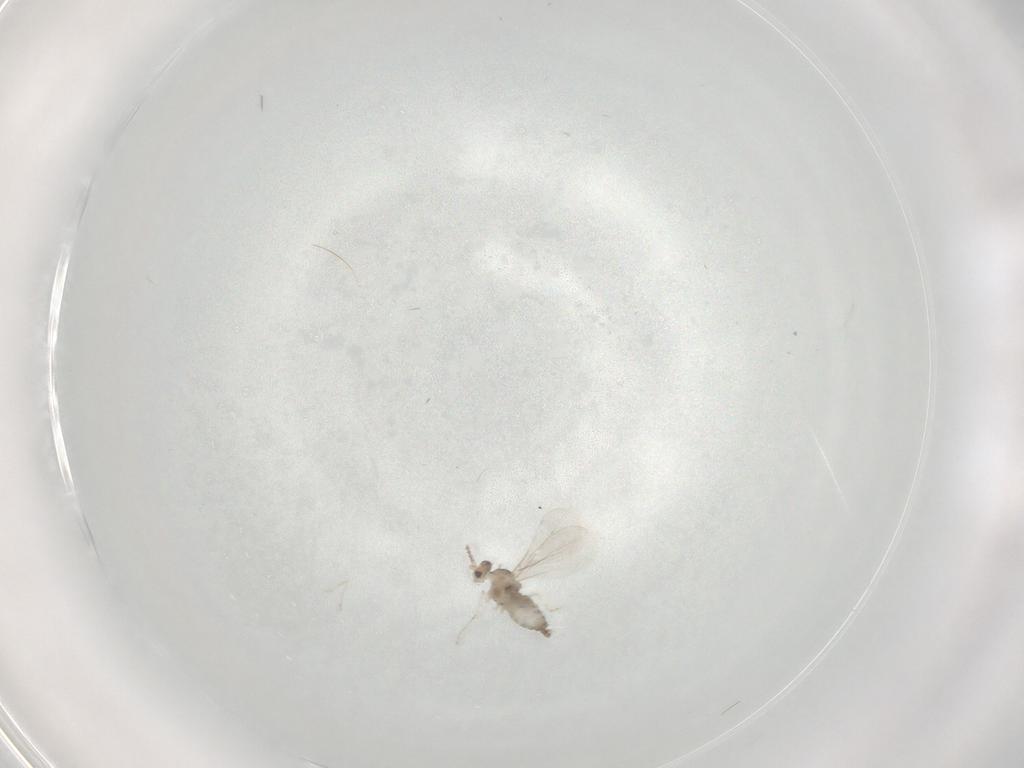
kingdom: Animalia
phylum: Arthropoda
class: Insecta
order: Diptera
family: Cecidomyiidae
